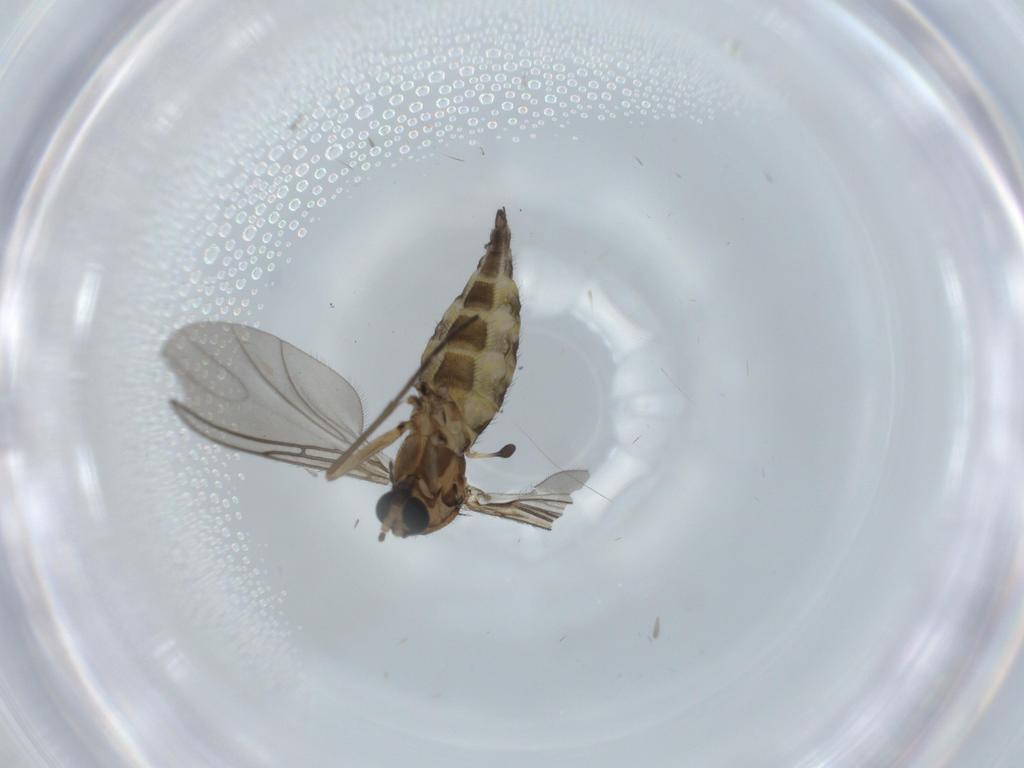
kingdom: Animalia
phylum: Arthropoda
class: Insecta
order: Diptera
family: Sciaridae
